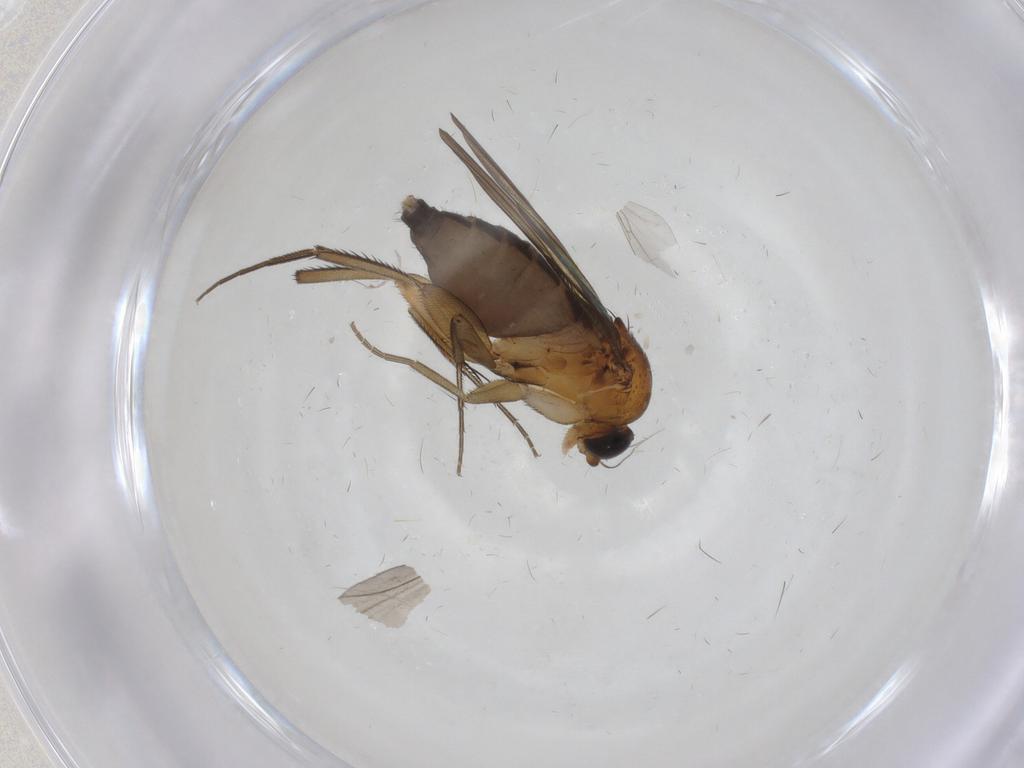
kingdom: Animalia
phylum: Arthropoda
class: Insecta
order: Diptera
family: Phoridae
